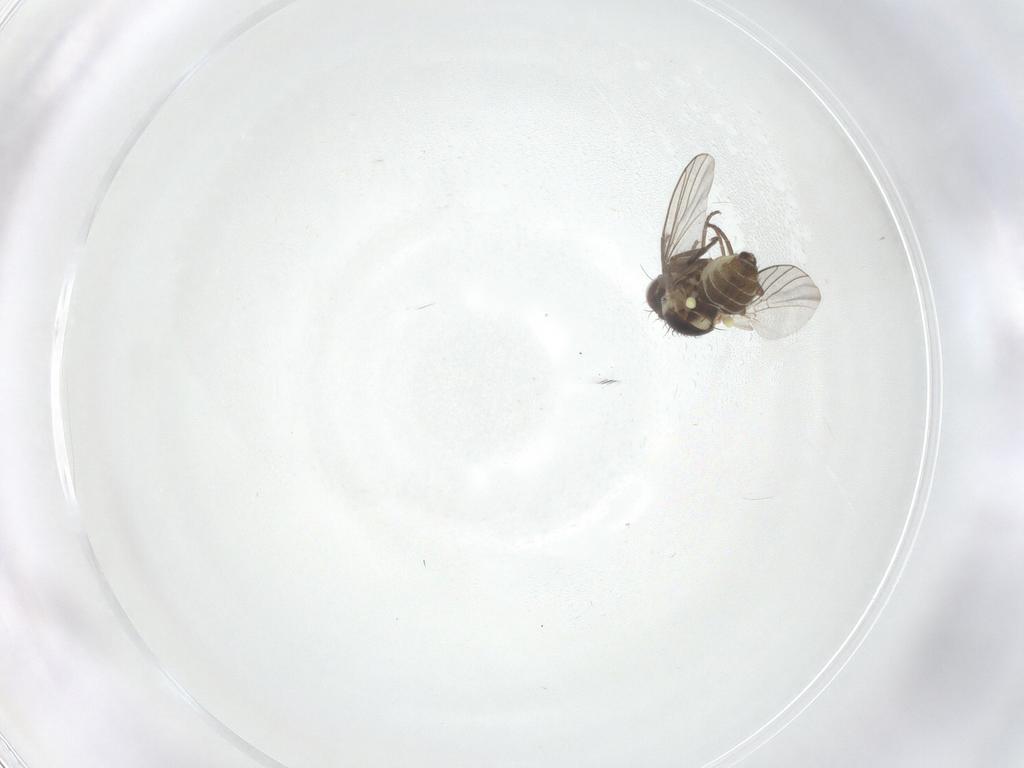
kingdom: Animalia
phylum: Arthropoda
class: Insecta
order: Diptera
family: Agromyzidae
